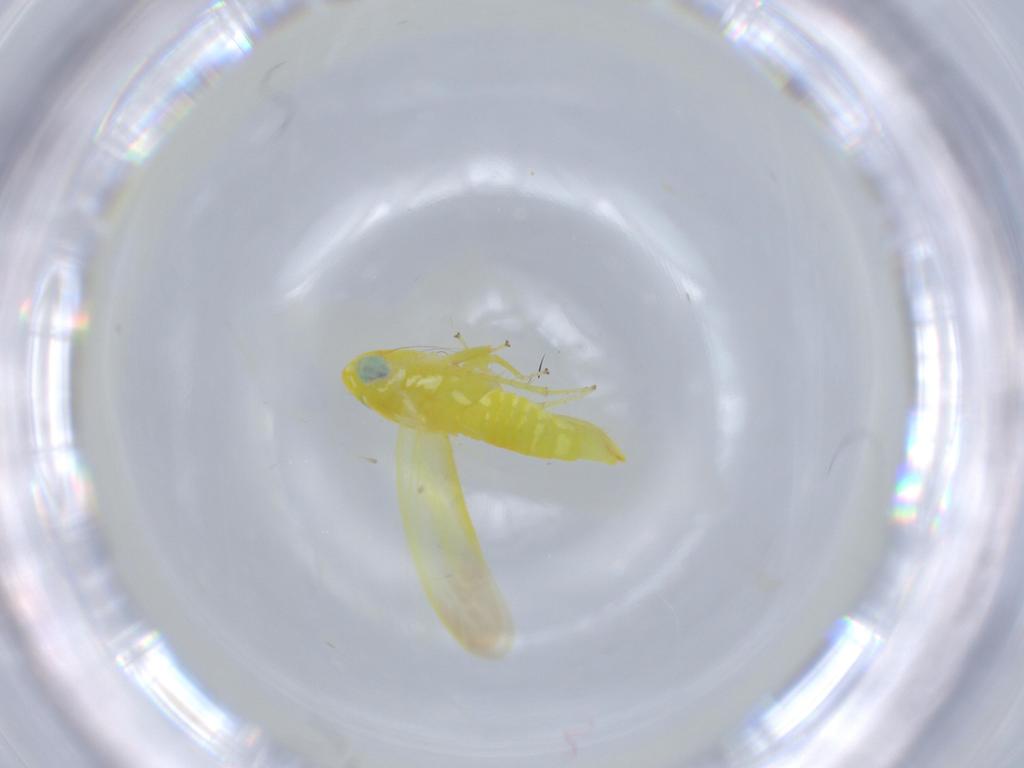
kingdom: Animalia
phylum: Arthropoda
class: Insecta
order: Hemiptera
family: Cicadellidae
